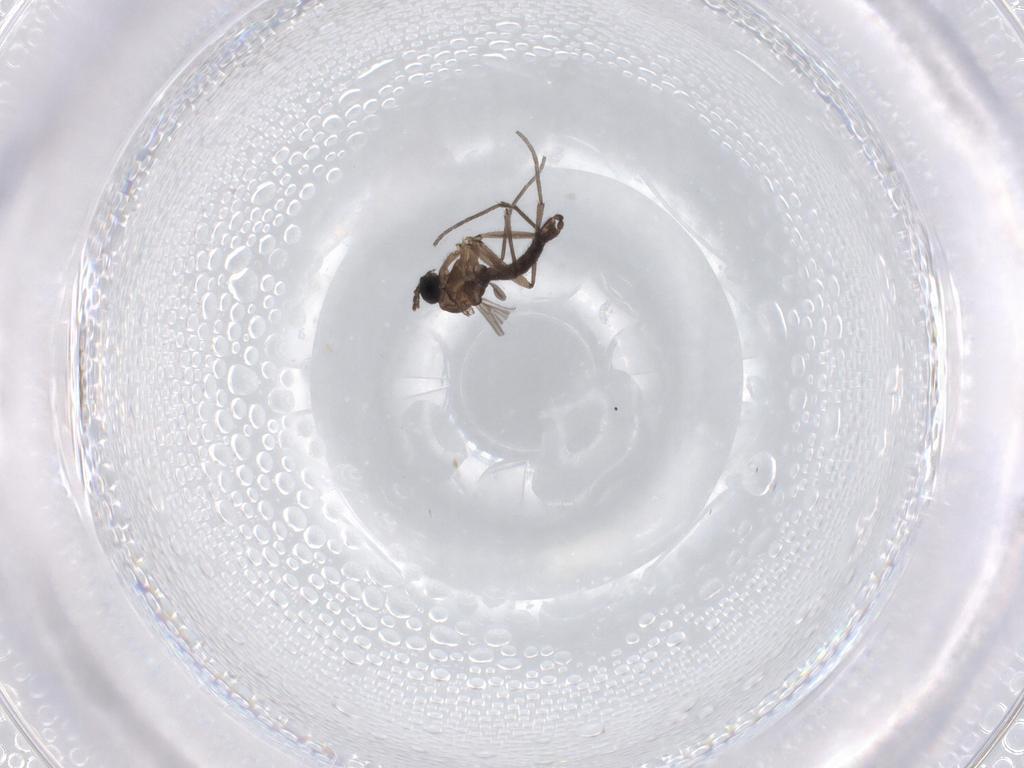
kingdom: Animalia
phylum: Arthropoda
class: Insecta
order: Diptera
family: Sciaridae
